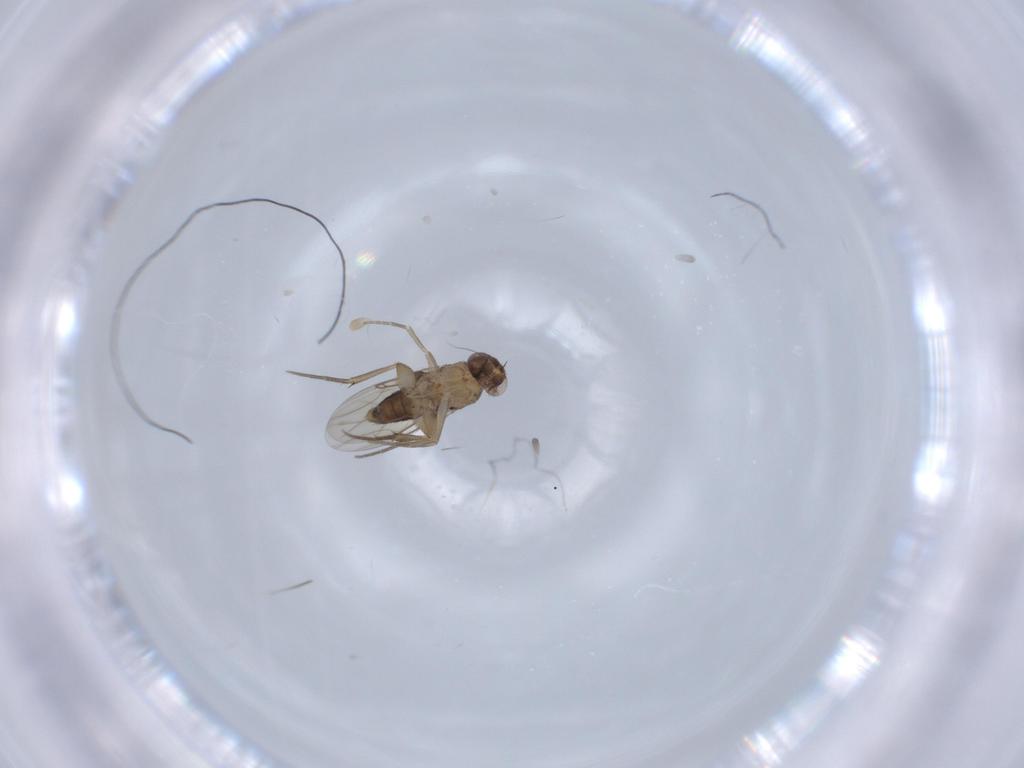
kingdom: Animalia
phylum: Arthropoda
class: Insecta
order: Diptera
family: Phoridae
